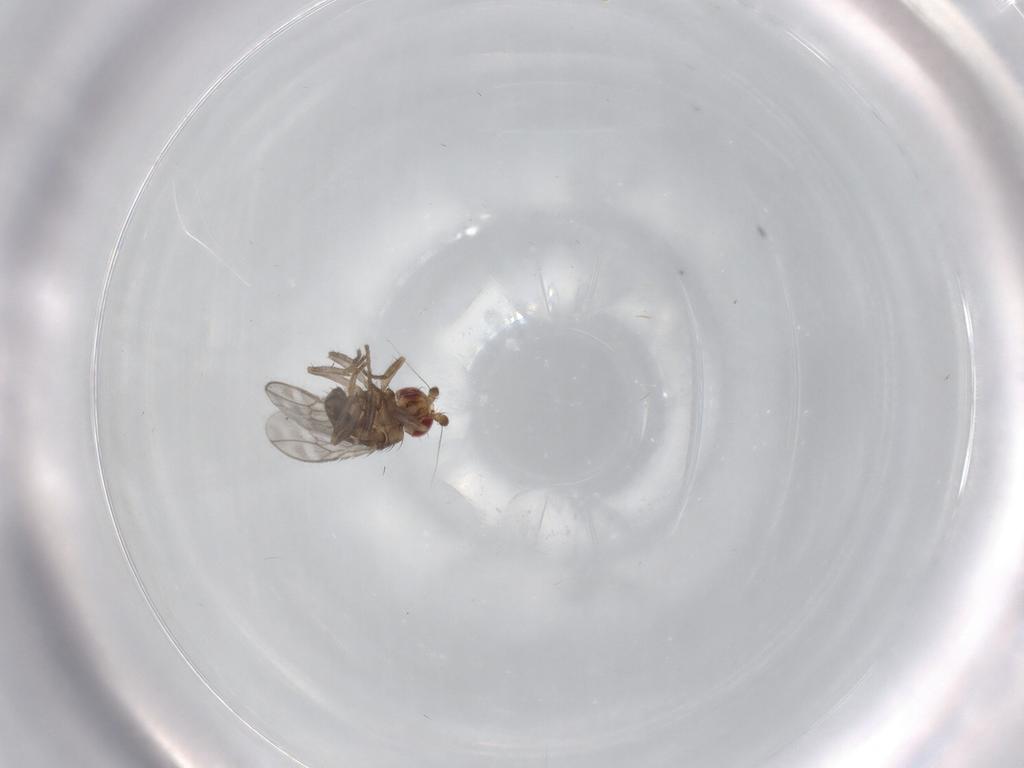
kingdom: Animalia
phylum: Arthropoda
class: Insecta
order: Diptera
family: Sphaeroceridae
